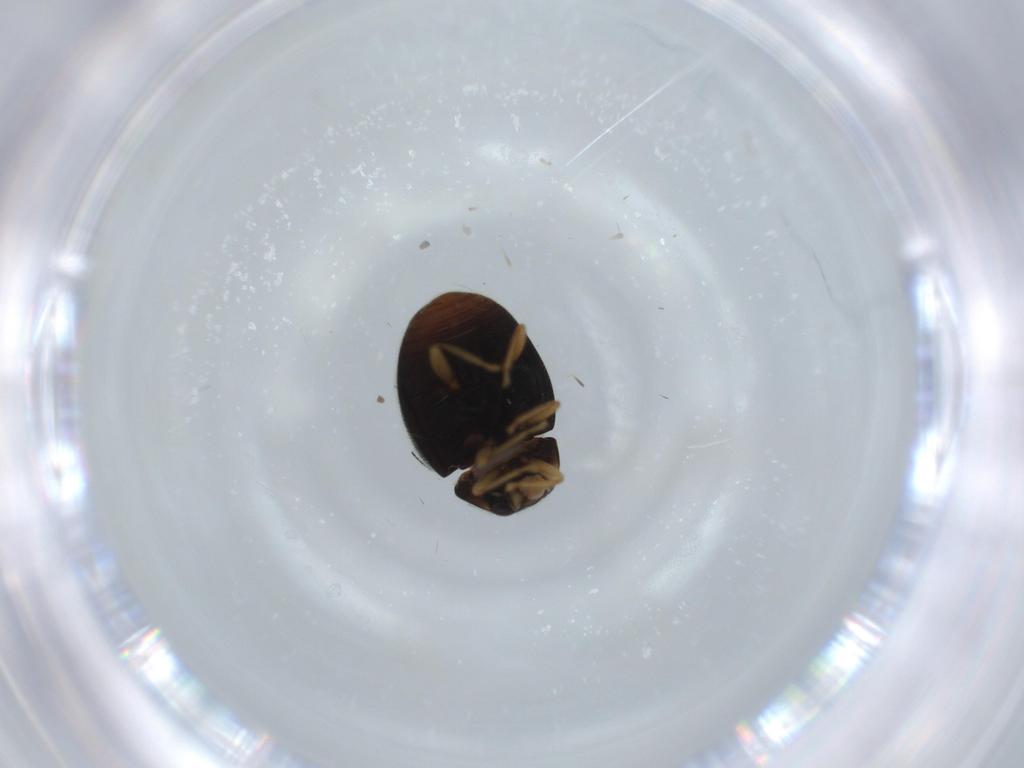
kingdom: Animalia
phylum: Arthropoda
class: Insecta
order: Coleoptera
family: Coccinellidae
